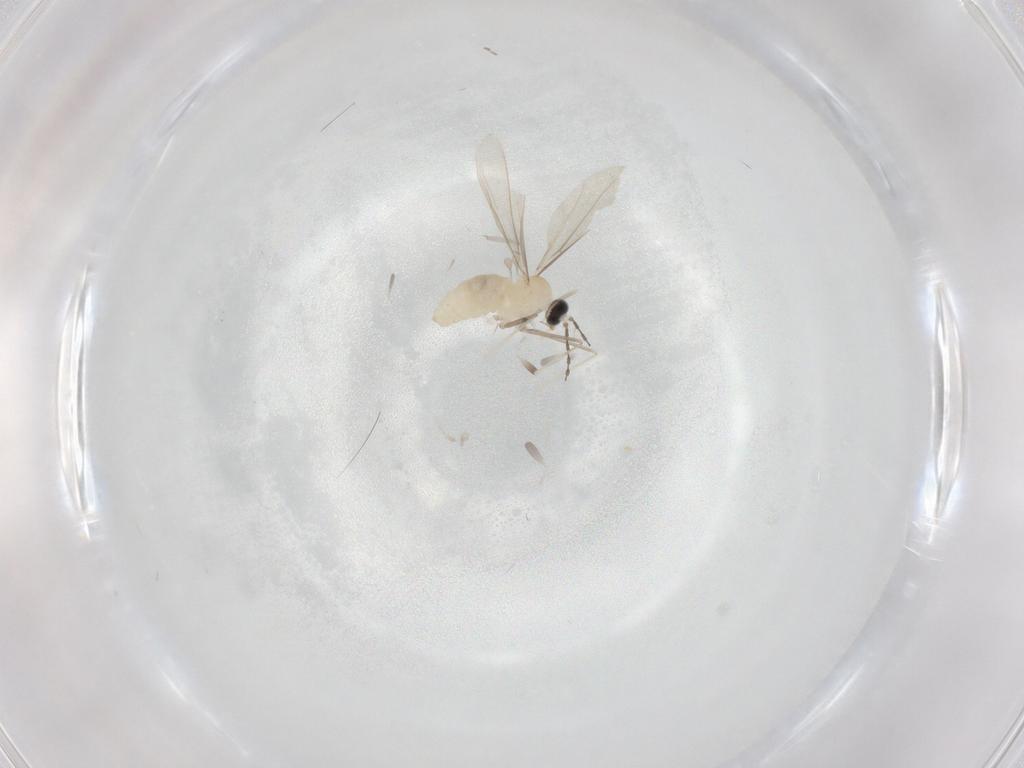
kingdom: Animalia
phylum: Arthropoda
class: Insecta
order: Diptera
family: Cecidomyiidae
